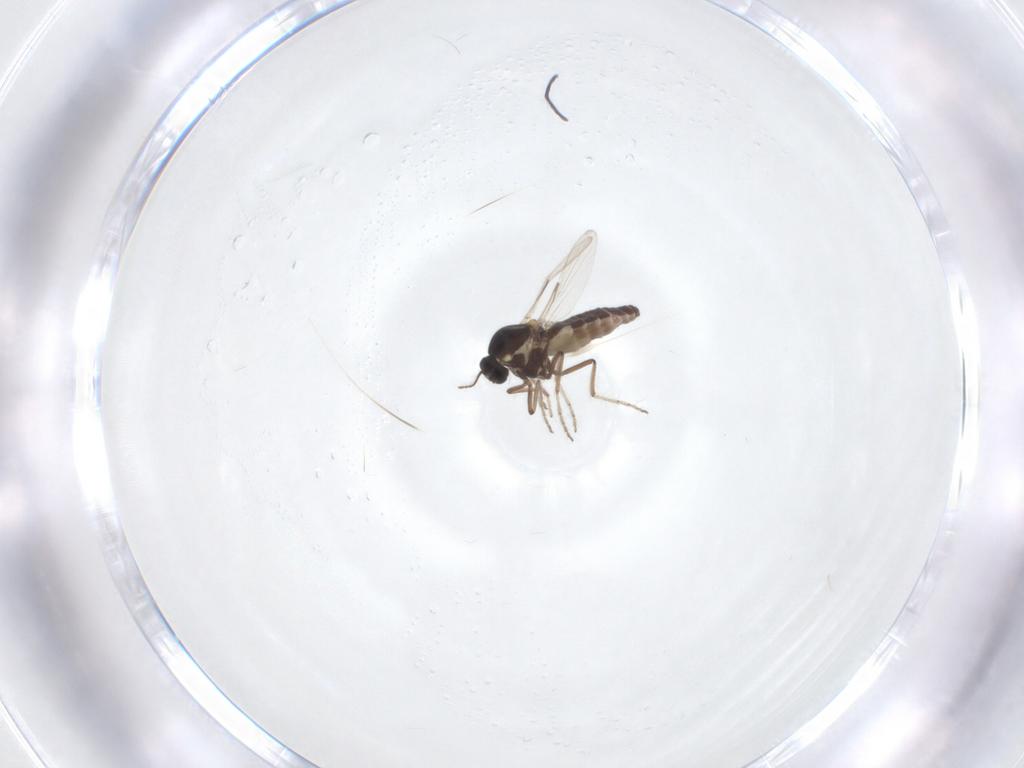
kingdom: Animalia
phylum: Arthropoda
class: Insecta
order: Diptera
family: Ceratopogonidae
